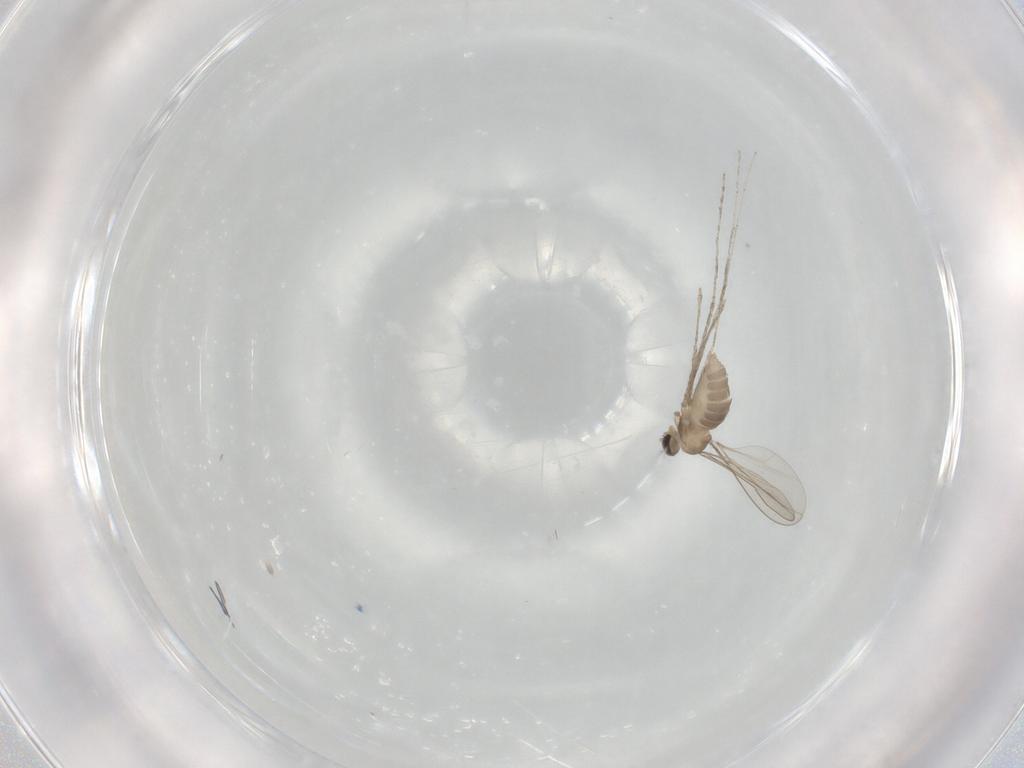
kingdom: Animalia
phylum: Arthropoda
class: Insecta
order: Diptera
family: Cecidomyiidae
